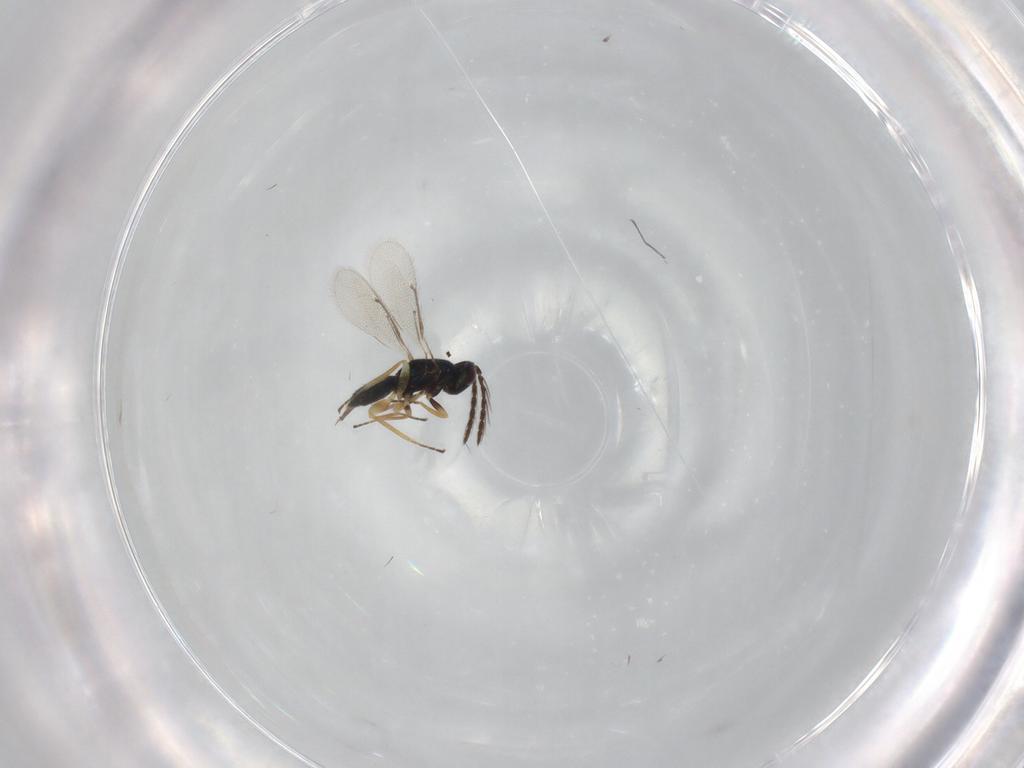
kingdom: Animalia
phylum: Arthropoda
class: Insecta
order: Hymenoptera
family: Eulophidae
